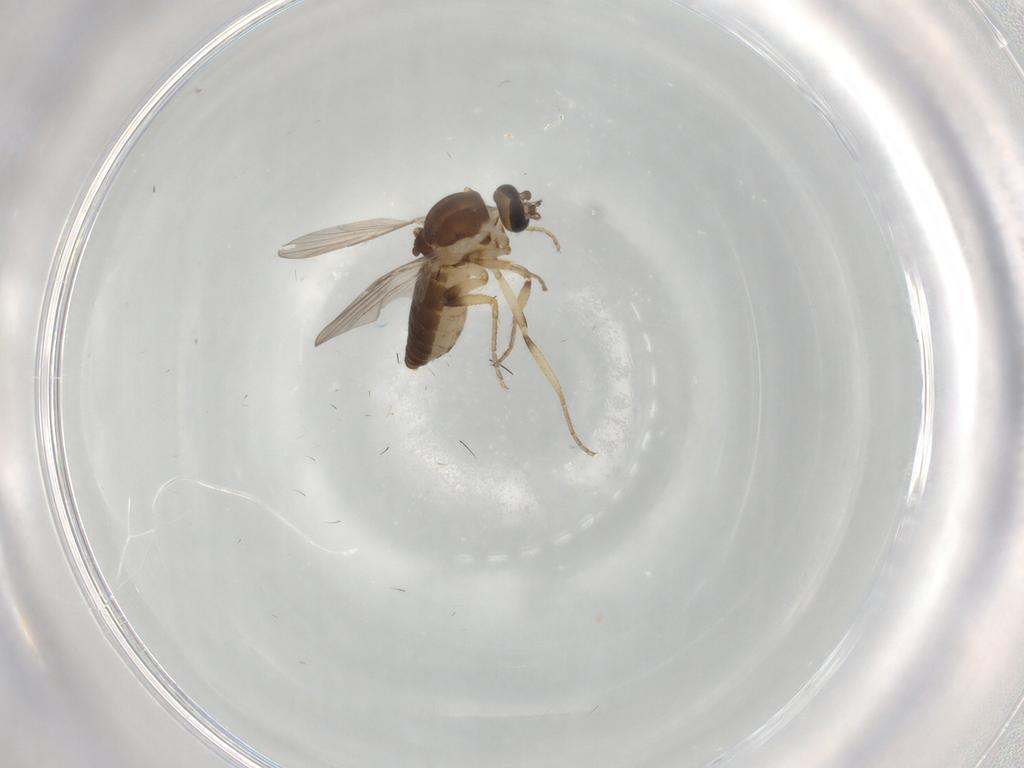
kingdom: Animalia
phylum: Arthropoda
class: Insecta
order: Diptera
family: Ceratopogonidae
